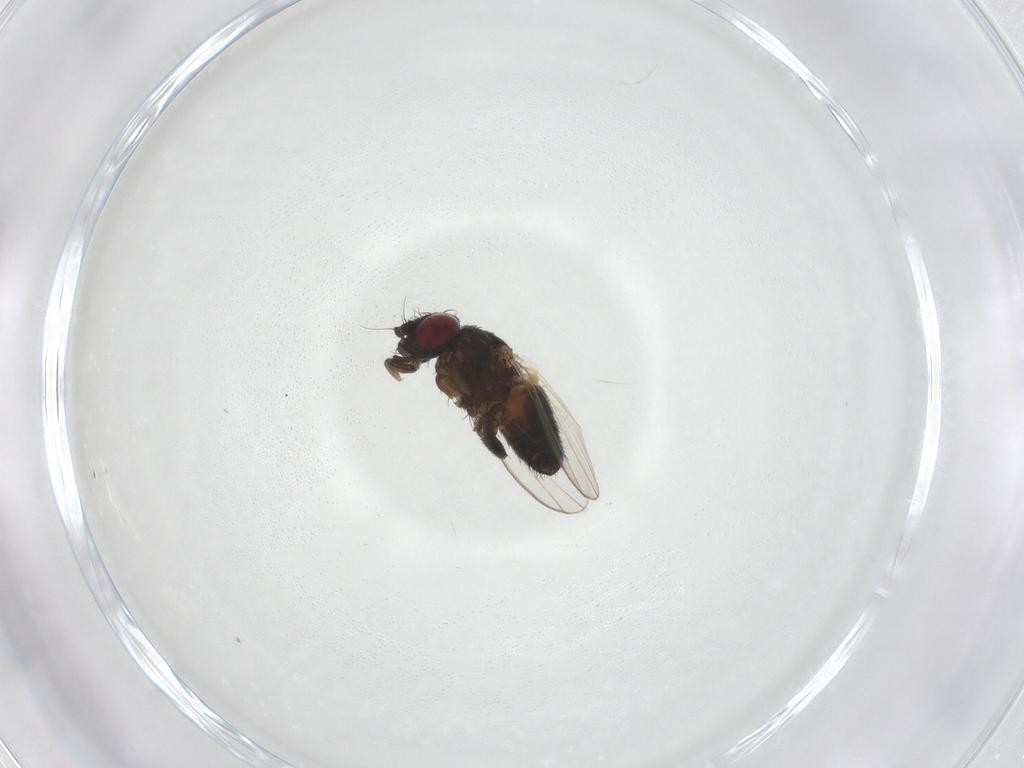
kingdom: Animalia
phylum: Arthropoda
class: Insecta
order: Diptera
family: Milichiidae
